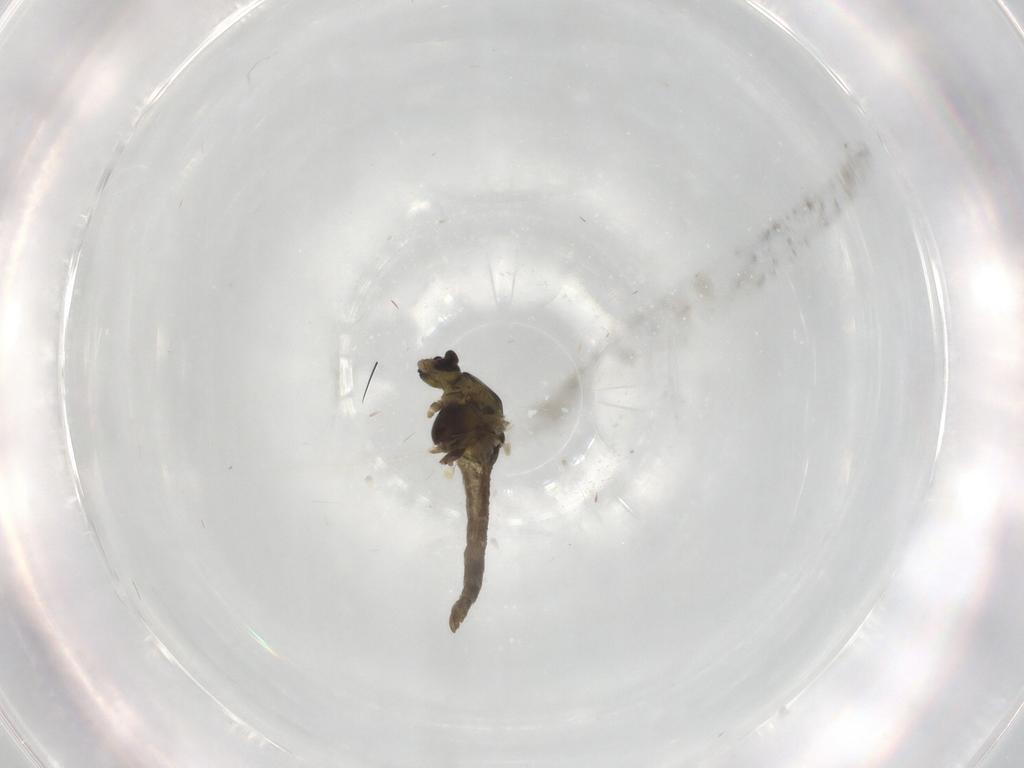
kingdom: Animalia
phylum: Arthropoda
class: Insecta
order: Diptera
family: Chironomidae
